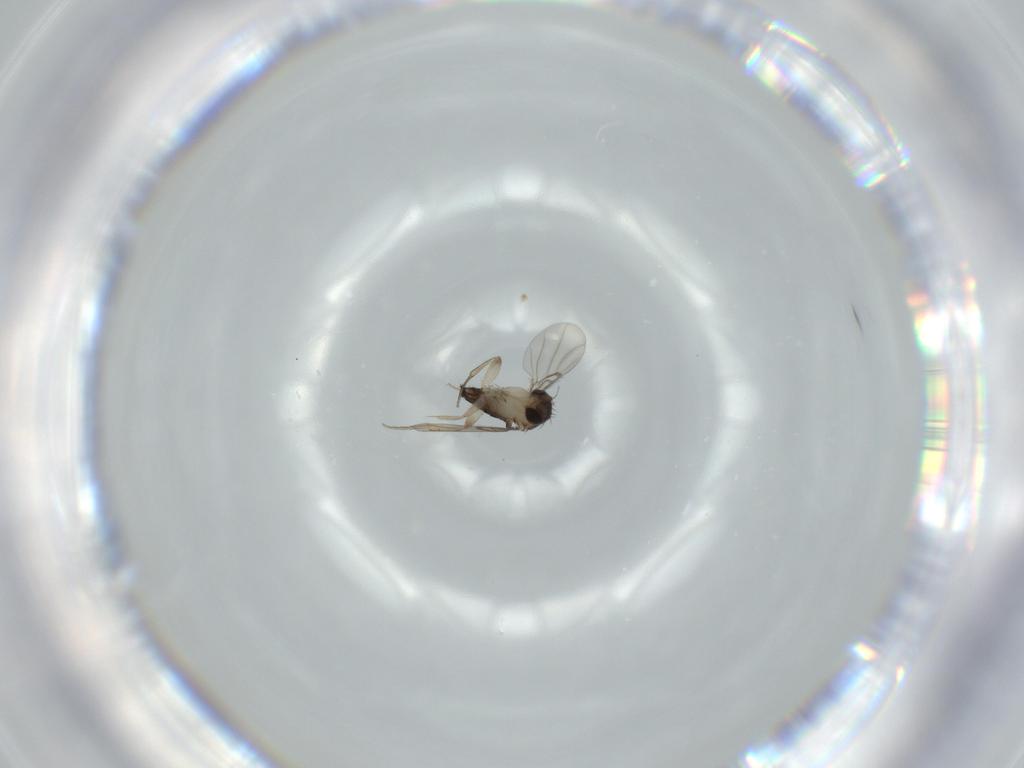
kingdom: Animalia
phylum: Arthropoda
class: Insecta
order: Diptera
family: Phoridae
